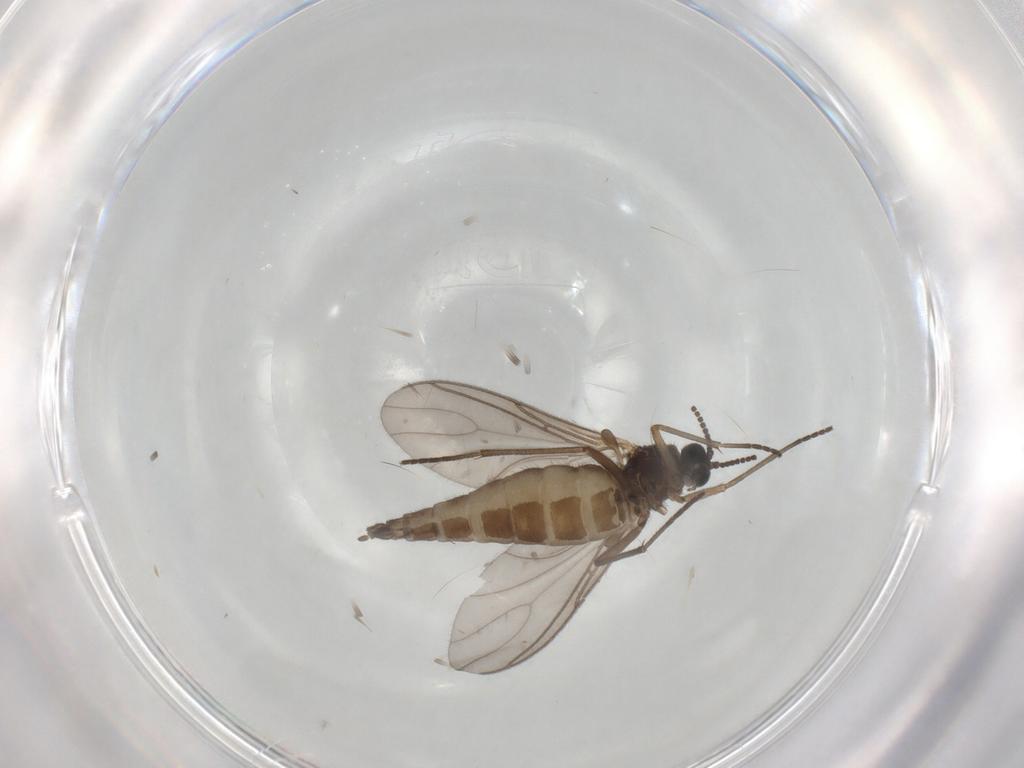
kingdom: Animalia
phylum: Arthropoda
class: Insecta
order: Diptera
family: Sciaridae
